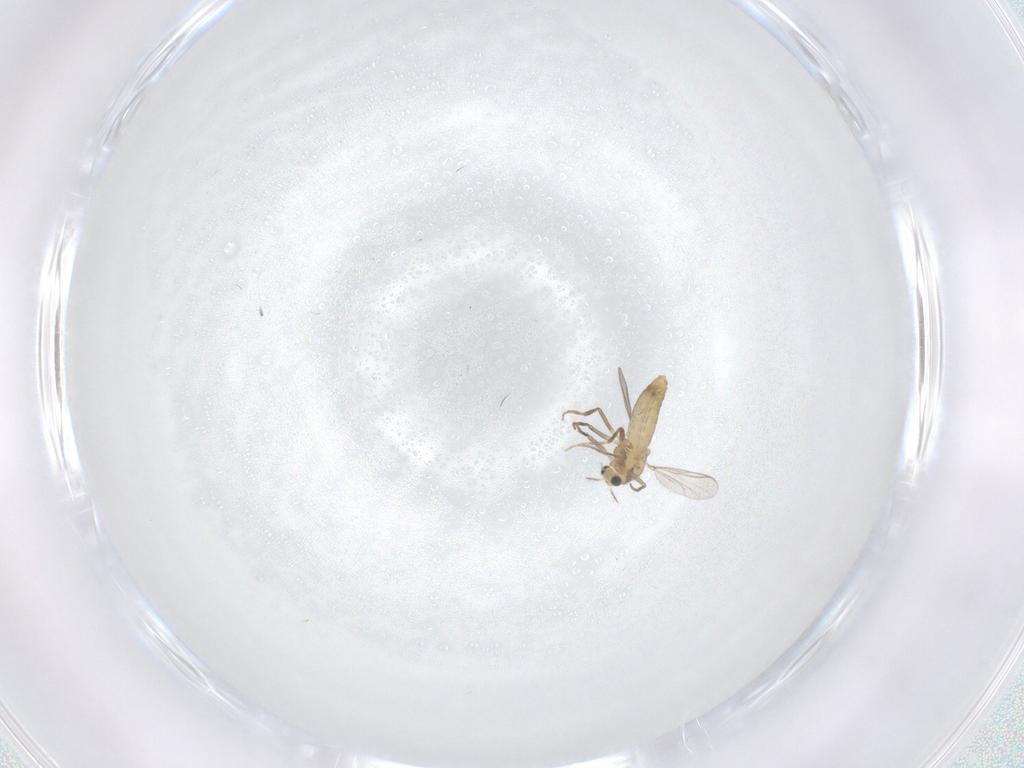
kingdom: Animalia
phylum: Arthropoda
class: Insecta
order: Diptera
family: Chironomidae
